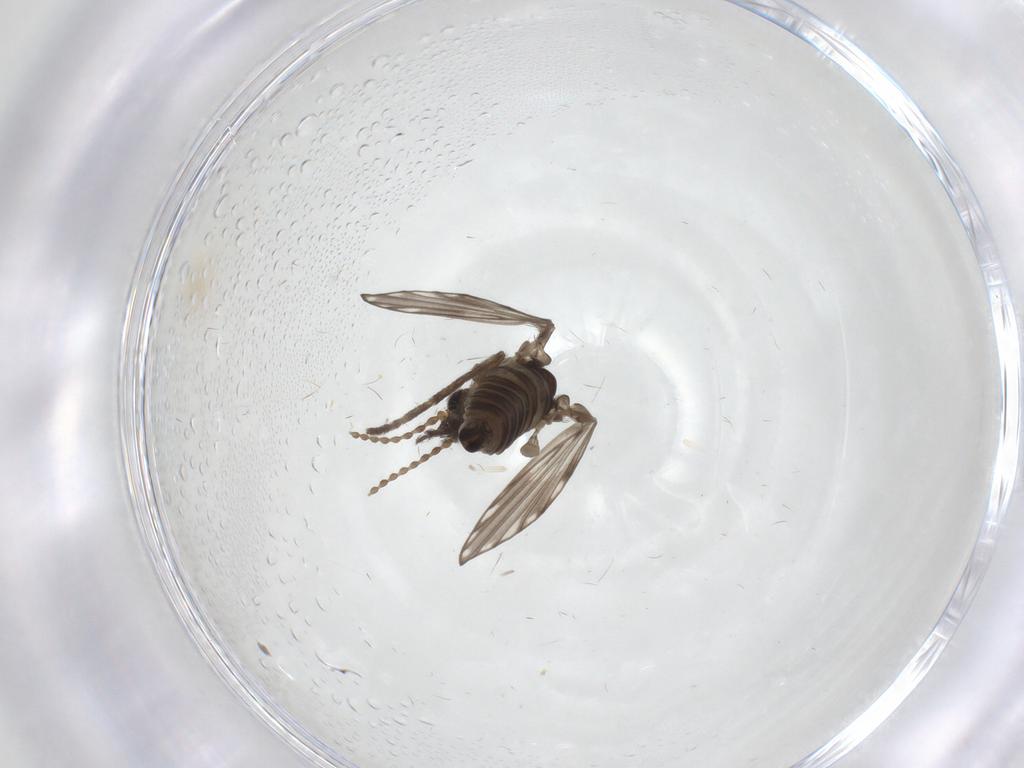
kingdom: Animalia
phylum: Arthropoda
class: Insecta
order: Diptera
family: Psychodidae
